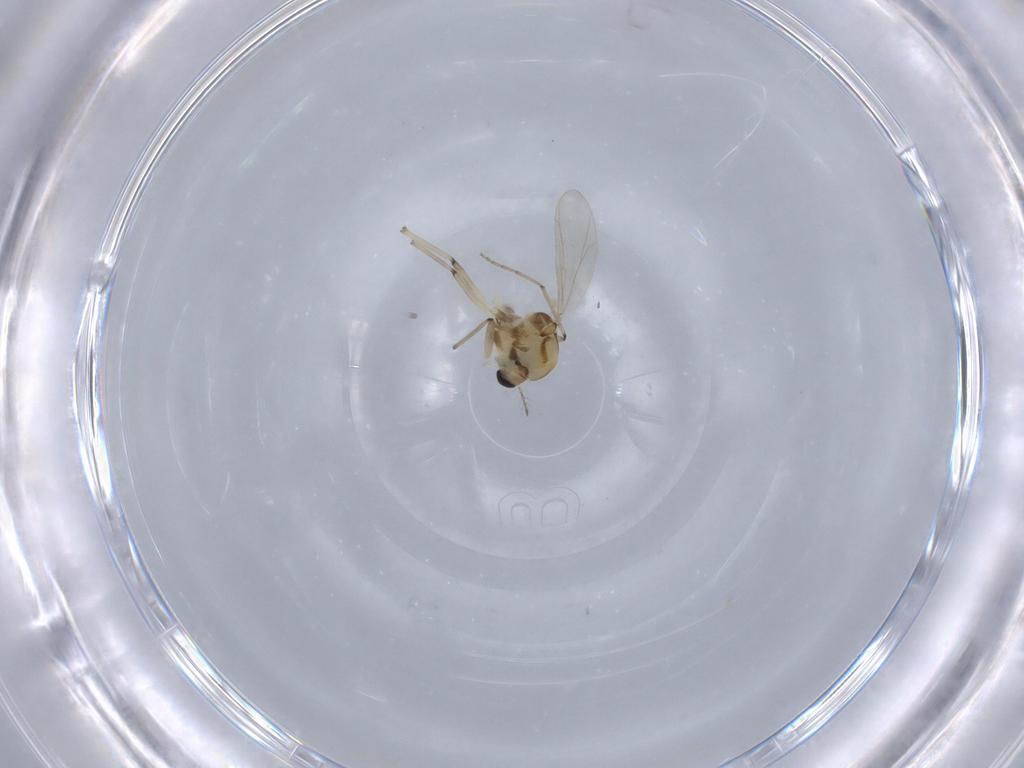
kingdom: Animalia
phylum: Arthropoda
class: Insecta
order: Diptera
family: Chironomidae
